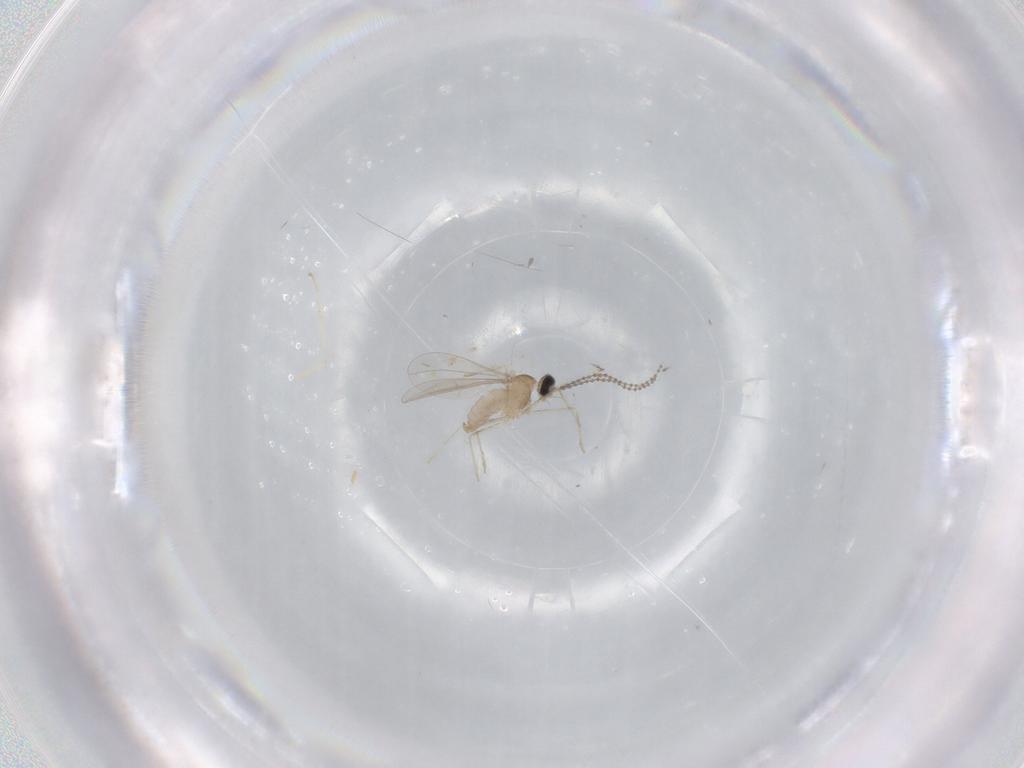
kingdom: Animalia
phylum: Arthropoda
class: Insecta
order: Diptera
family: Cecidomyiidae
